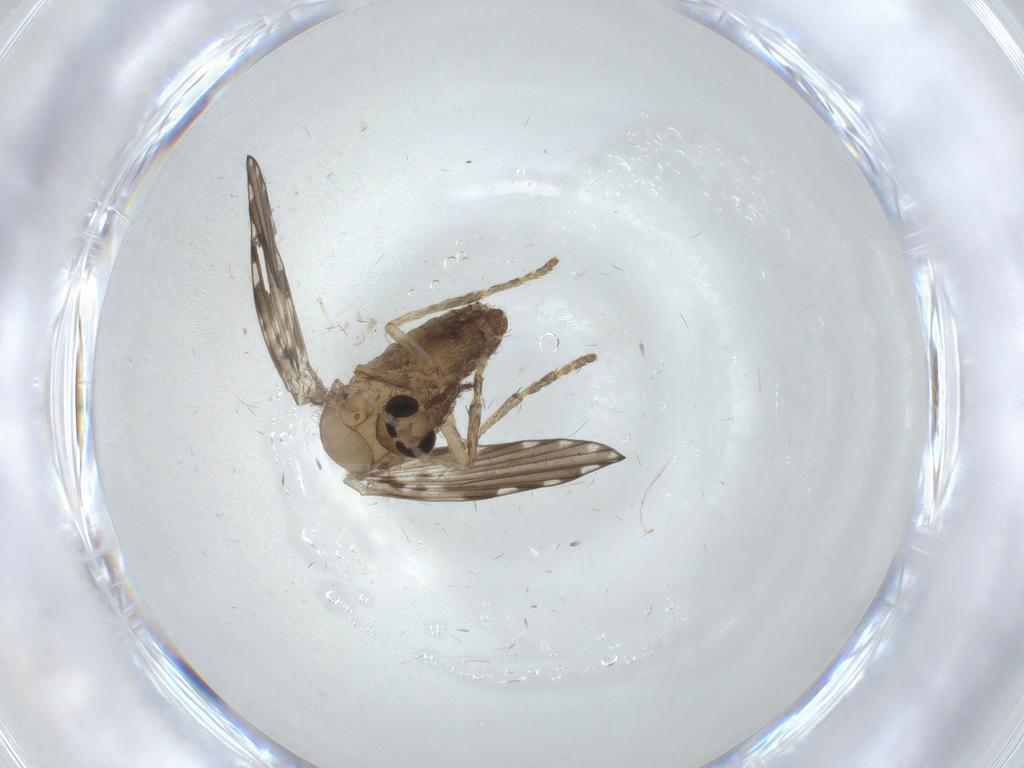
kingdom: Animalia
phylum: Arthropoda
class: Insecta
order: Diptera
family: Psychodidae
